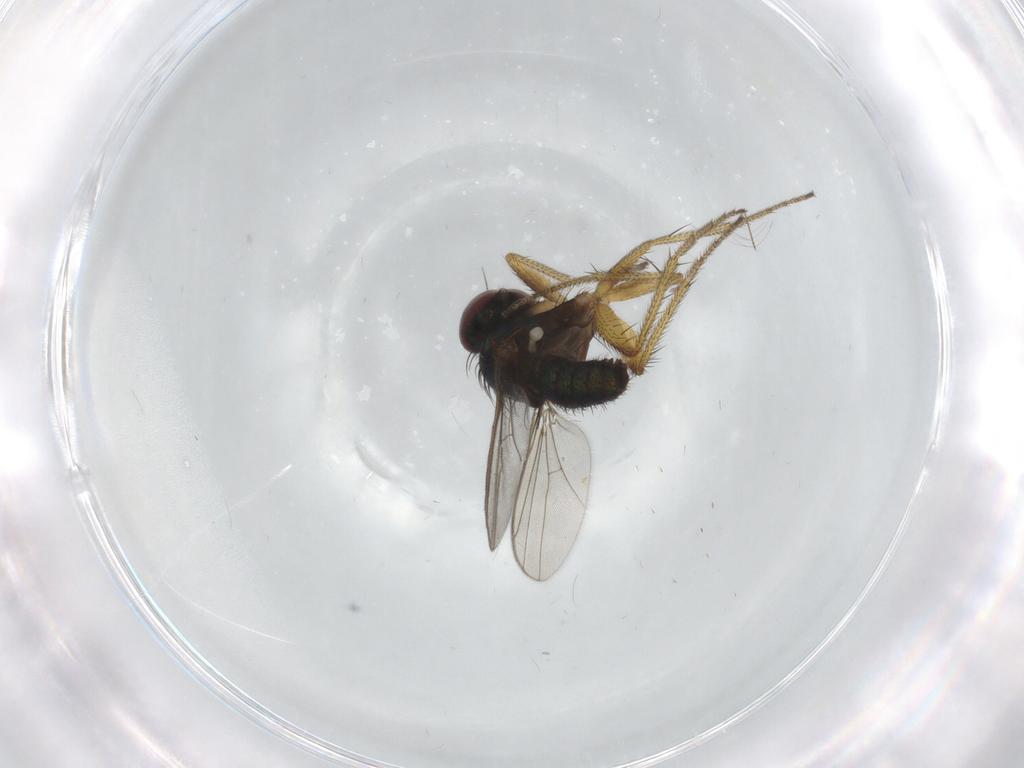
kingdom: Animalia
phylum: Arthropoda
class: Insecta
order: Diptera
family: Dolichopodidae
